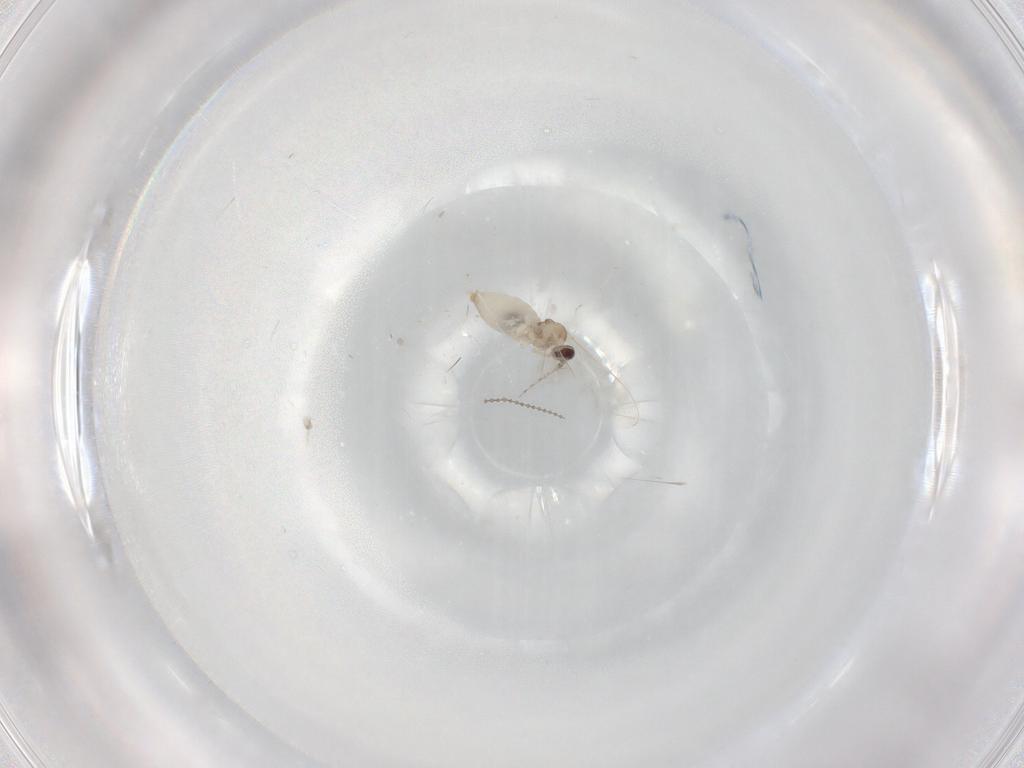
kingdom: Animalia
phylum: Arthropoda
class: Insecta
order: Diptera
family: Cecidomyiidae
